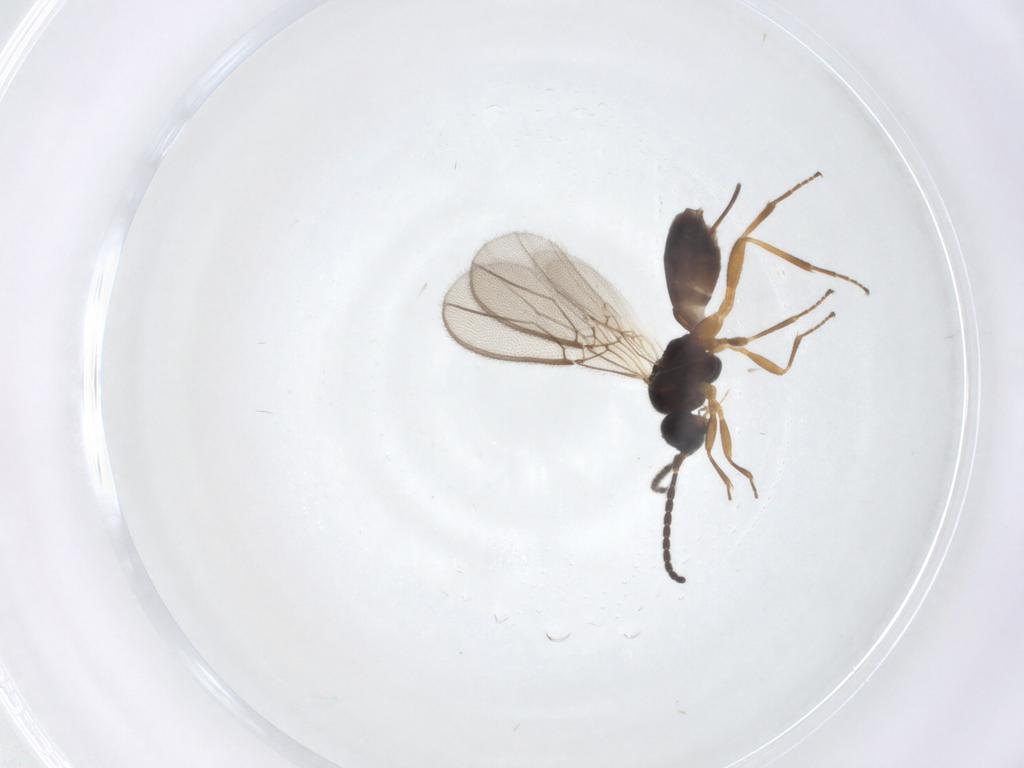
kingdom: Animalia
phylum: Arthropoda
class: Insecta
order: Hymenoptera
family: Braconidae
